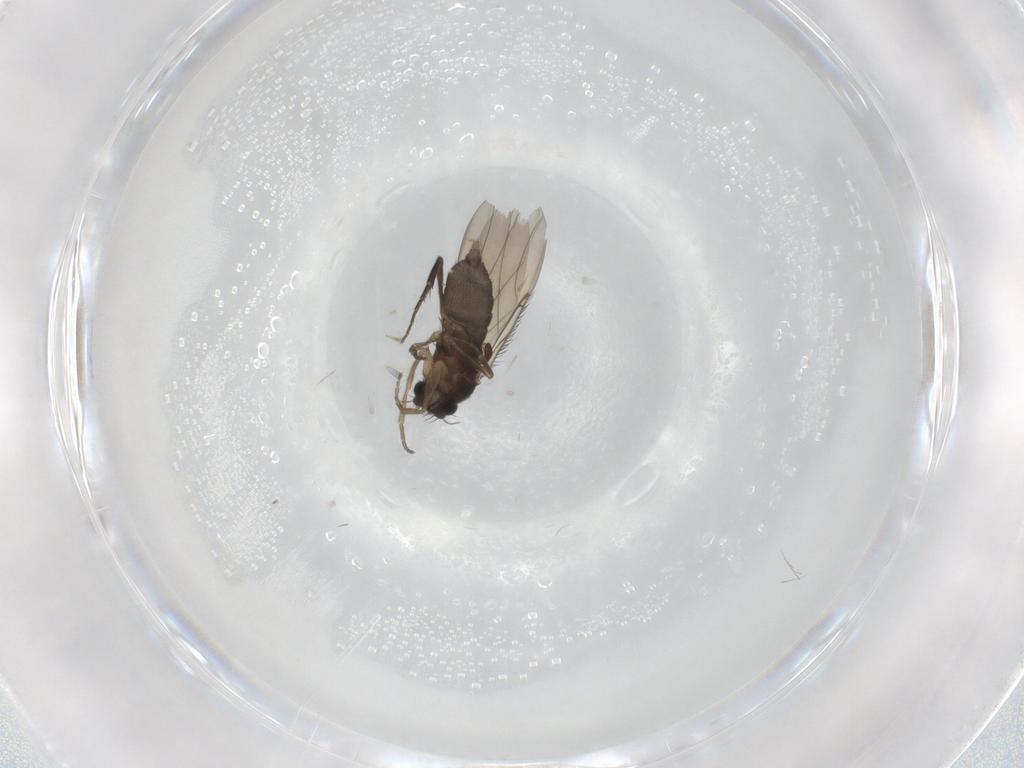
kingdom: Animalia
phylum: Arthropoda
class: Insecta
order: Diptera
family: Phoridae
